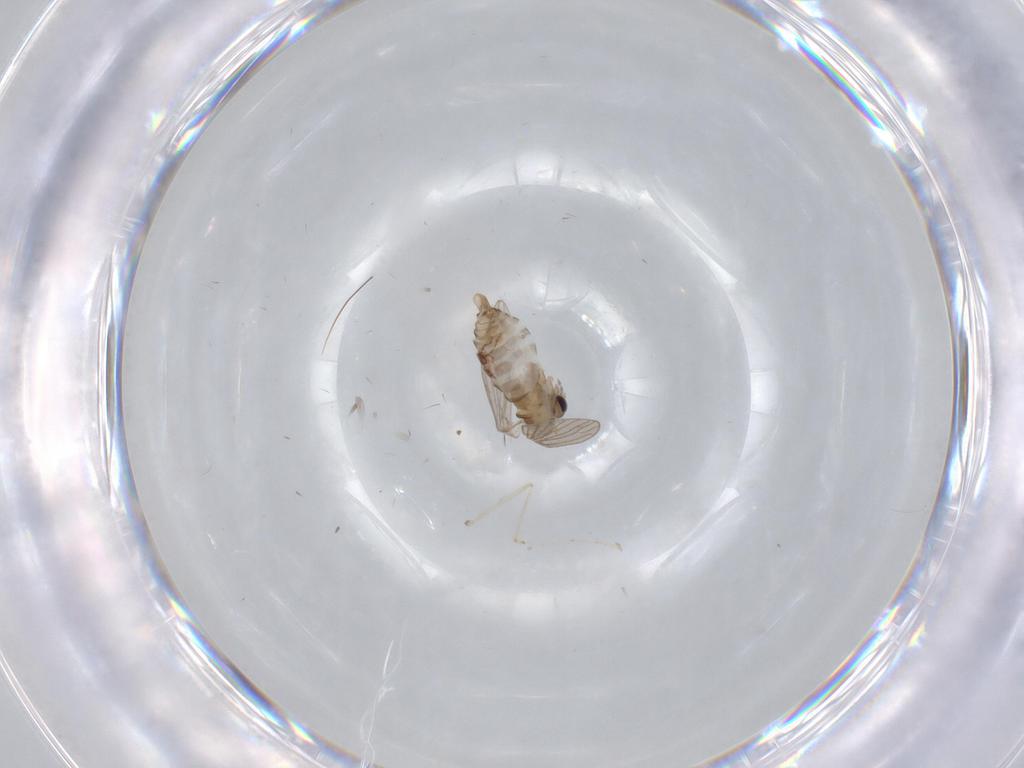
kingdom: Animalia
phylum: Arthropoda
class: Insecta
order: Diptera
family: Cecidomyiidae
